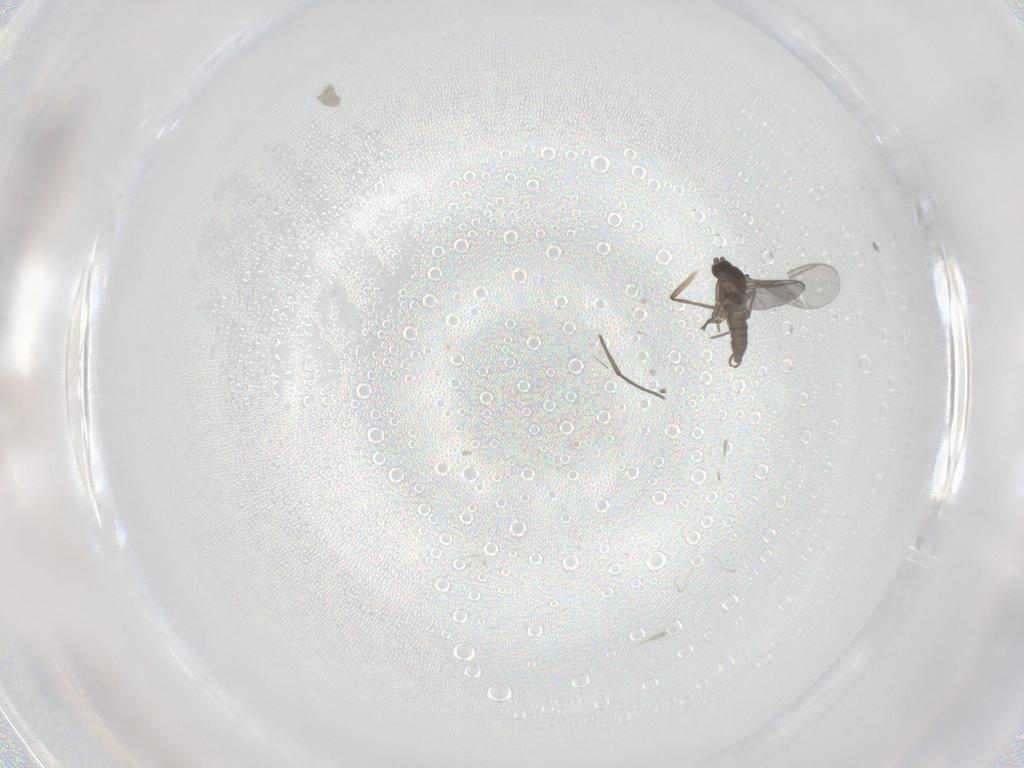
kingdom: Animalia
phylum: Arthropoda
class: Insecta
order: Diptera
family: Sciaridae
